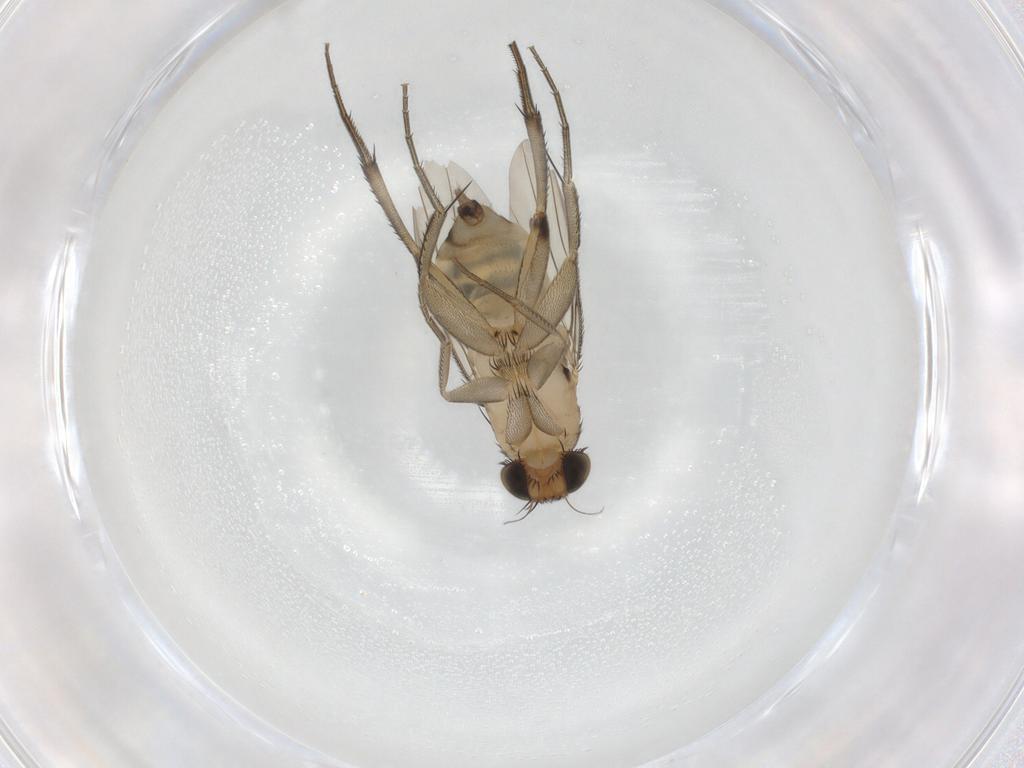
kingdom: Animalia
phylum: Arthropoda
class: Insecta
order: Diptera
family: Phoridae
